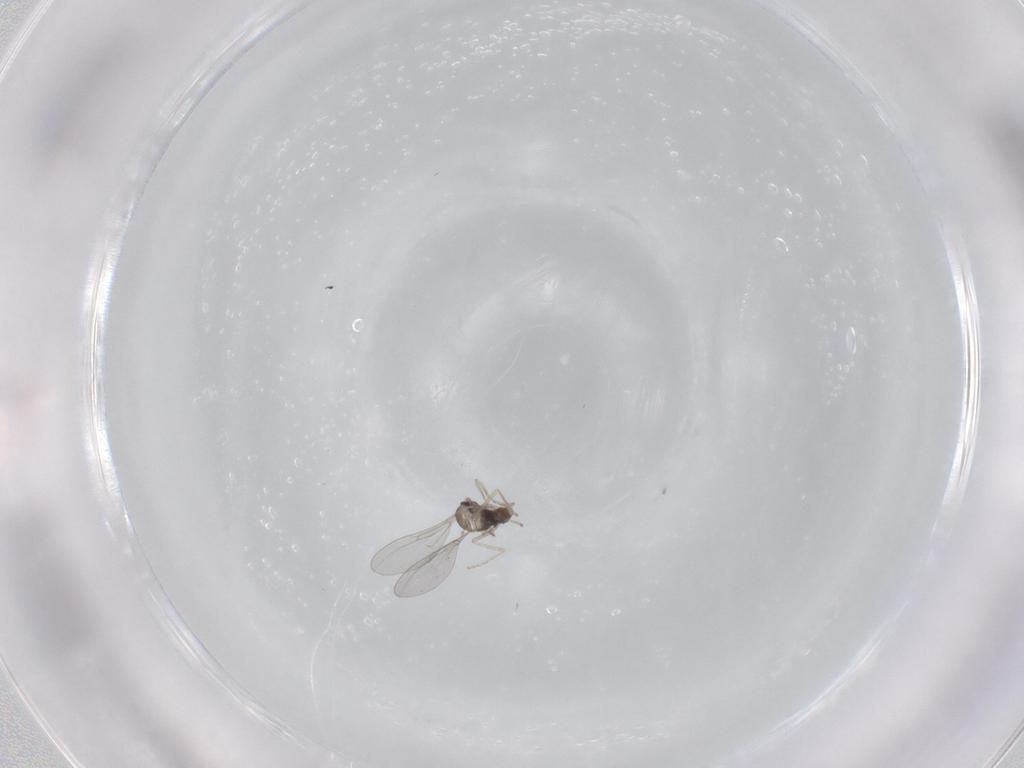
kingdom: Animalia
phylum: Arthropoda
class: Insecta
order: Diptera
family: Cecidomyiidae
